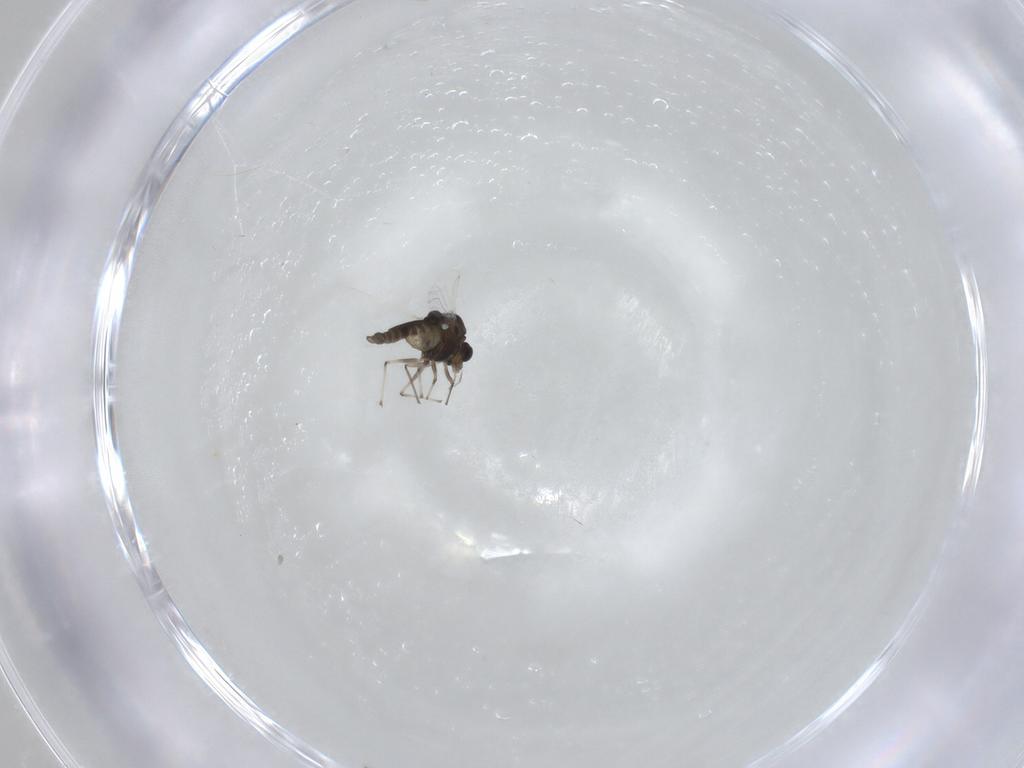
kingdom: Animalia
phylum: Arthropoda
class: Insecta
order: Diptera
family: Chironomidae
